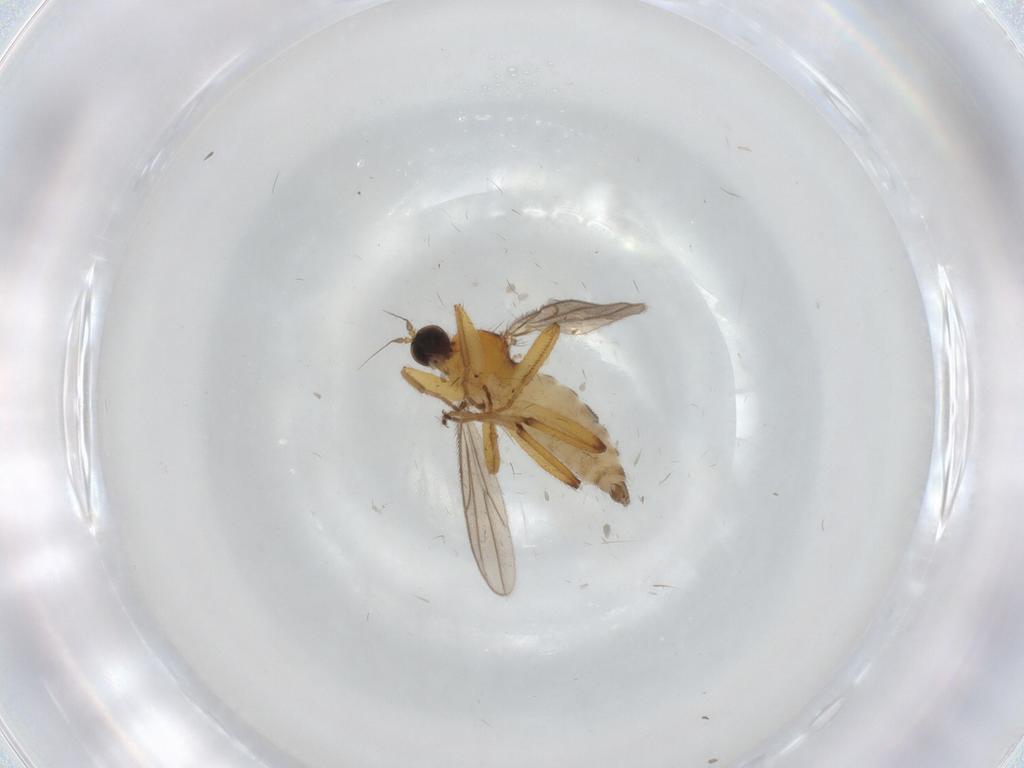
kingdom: Animalia
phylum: Arthropoda
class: Insecta
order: Diptera
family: Hybotidae
